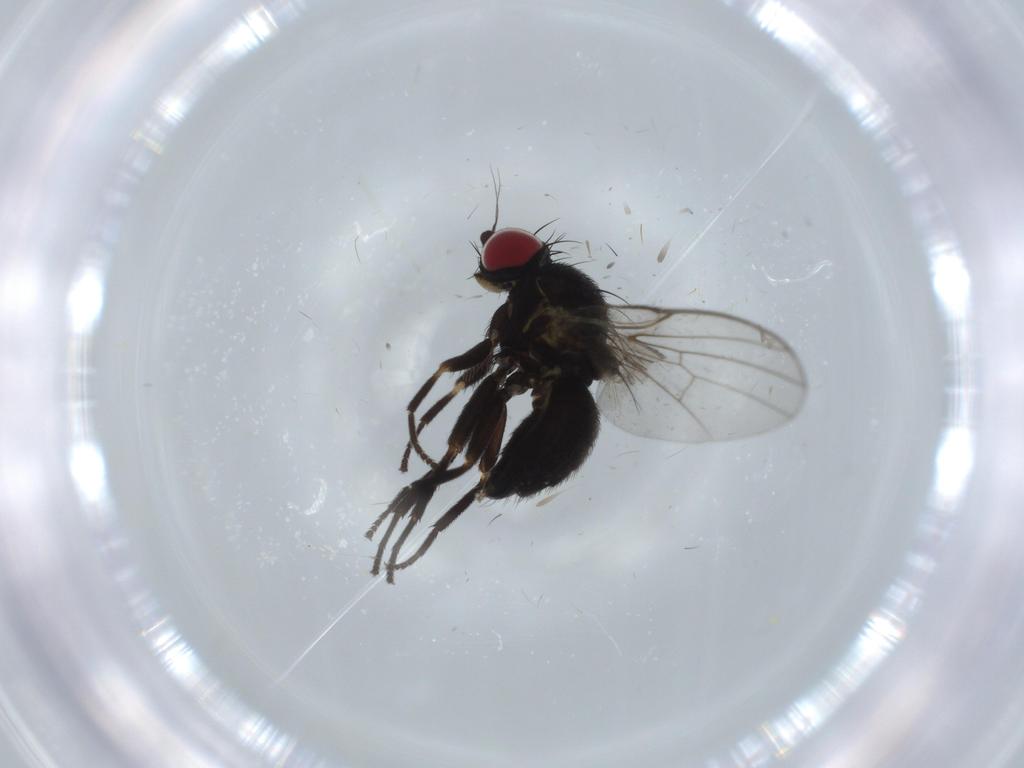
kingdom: Animalia
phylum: Arthropoda
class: Insecta
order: Diptera
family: Agromyzidae
